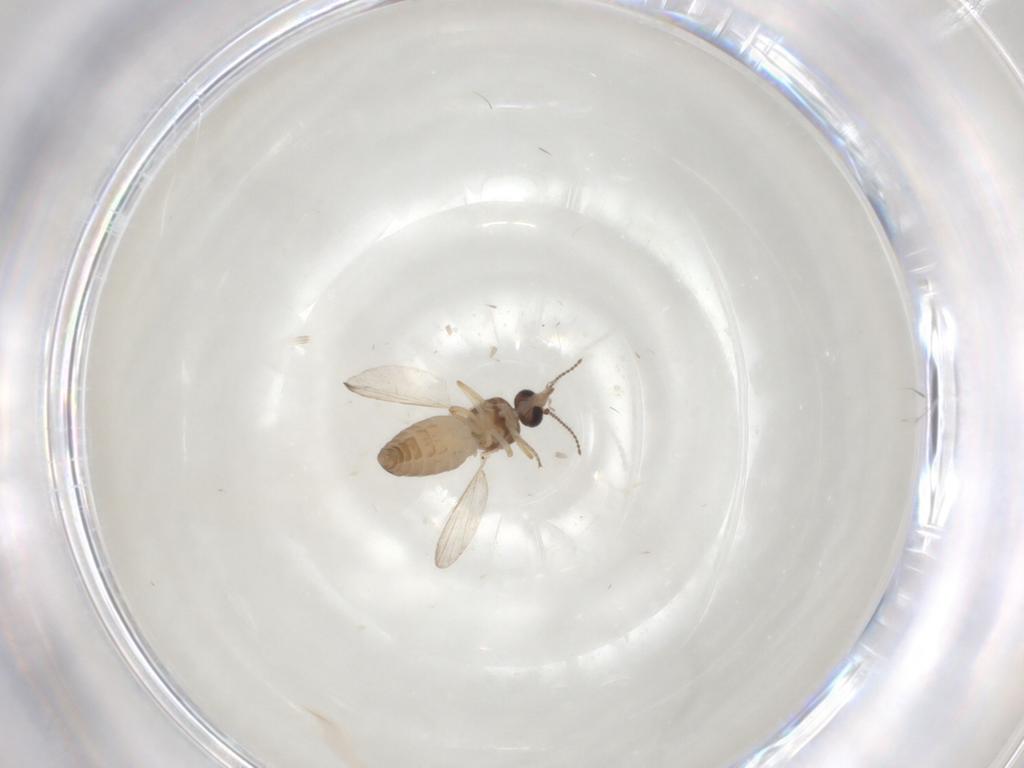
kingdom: Animalia
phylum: Arthropoda
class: Insecta
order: Diptera
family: Ceratopogonidae
